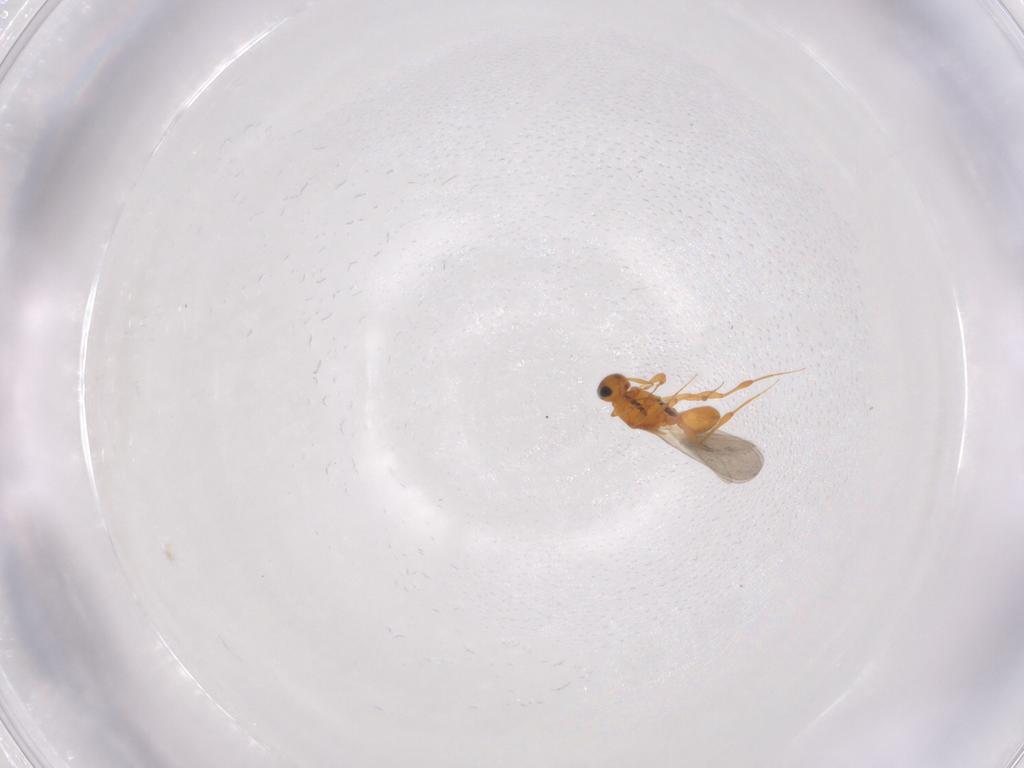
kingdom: Animalia
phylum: Arthropoda
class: Insecta
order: Hymenoptera
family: Platygastridae
